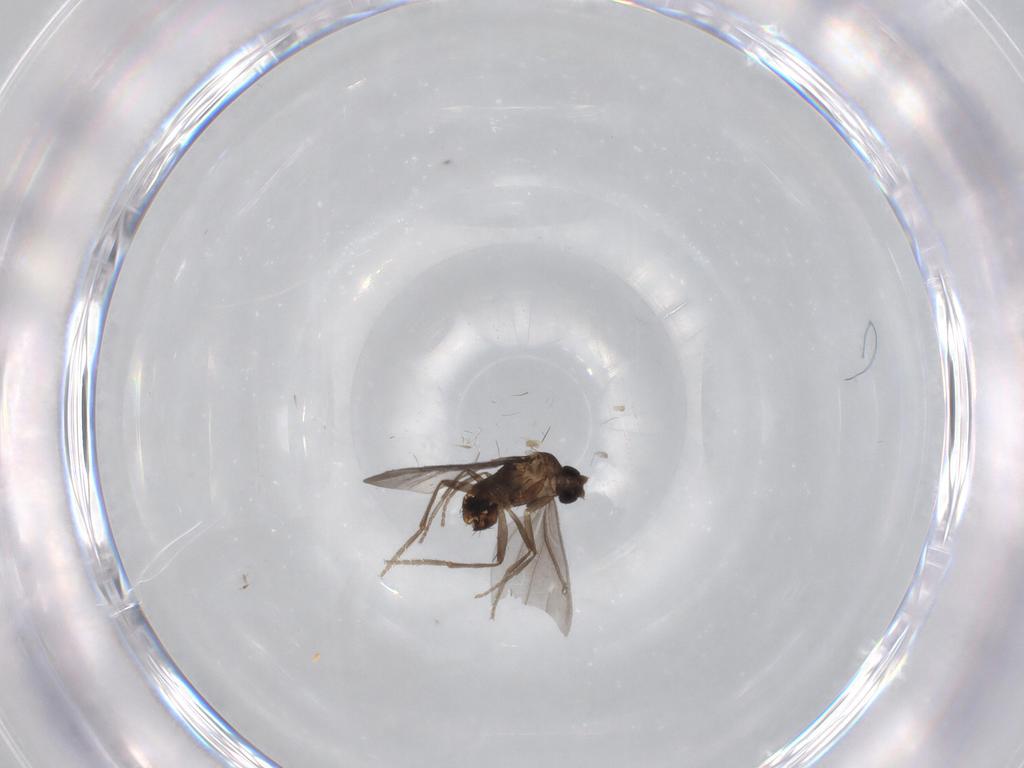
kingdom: Animalia
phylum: Arthropoda
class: Insecta
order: Diptera
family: Phoridae
